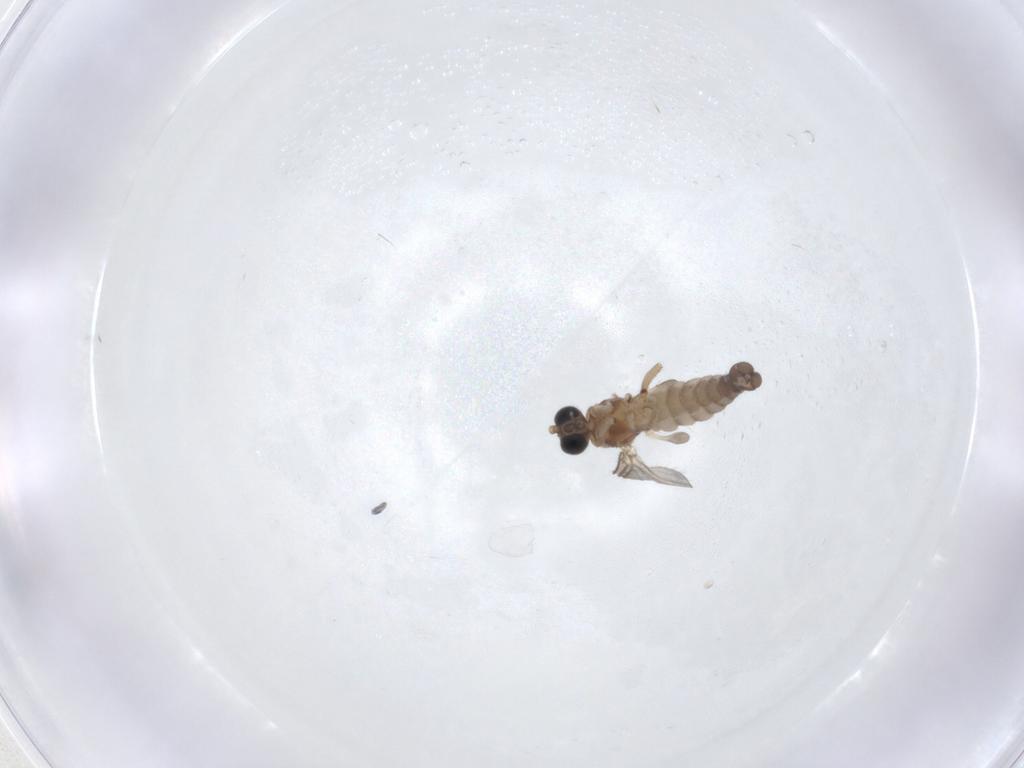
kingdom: Animalia
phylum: Arthropoda
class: Insecta
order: Diptera
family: Sciaridae
